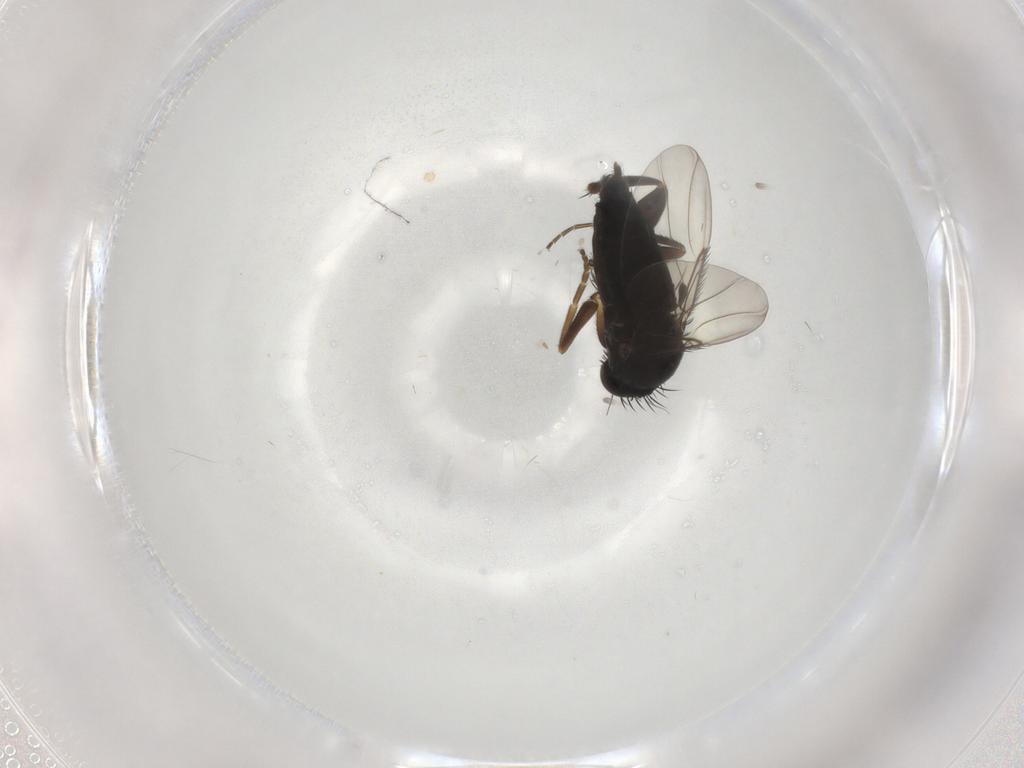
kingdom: Animalia
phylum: Arthropoda
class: Insecta
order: Diptera
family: Phoridae
